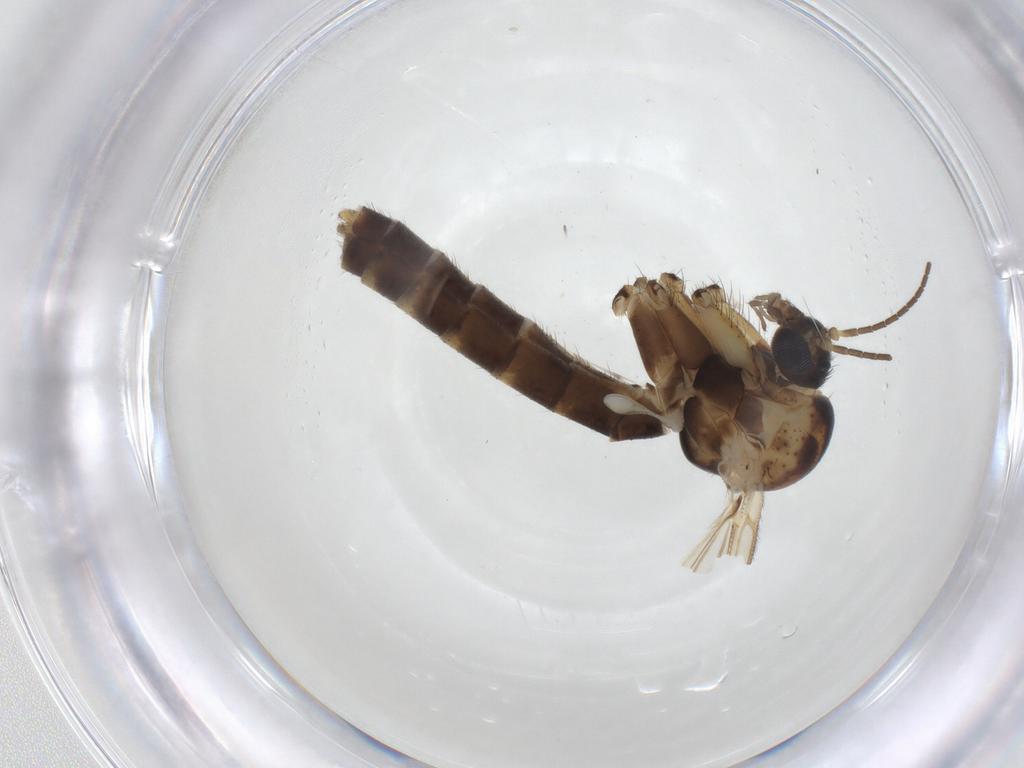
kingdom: Animalia
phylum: Arthropoda
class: Insecta
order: Diptera
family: Mycetophilidae
